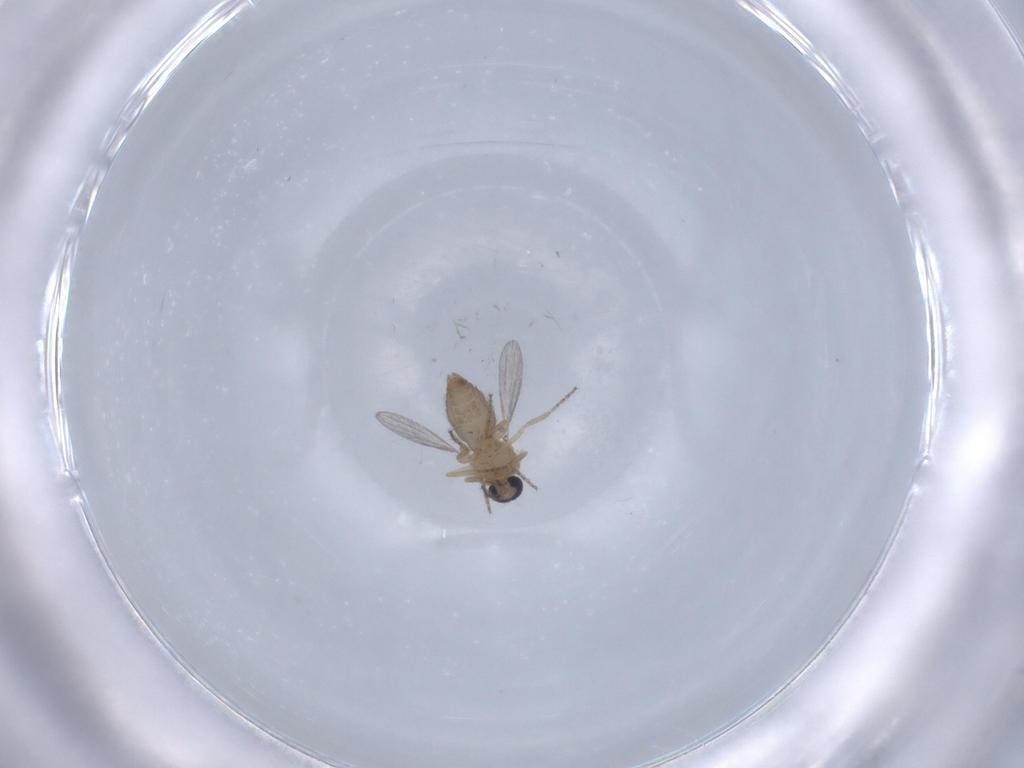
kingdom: Animalia
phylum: Arthropoda
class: Insecta
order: Diptera
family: Ceratopogonidae
